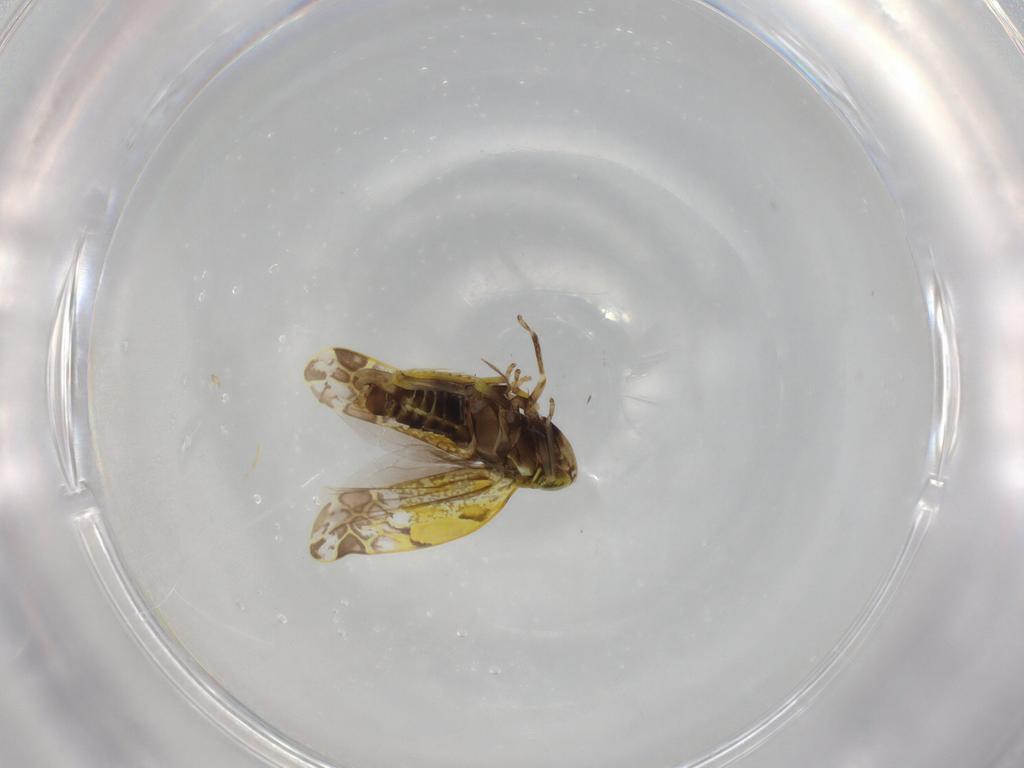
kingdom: Animalia
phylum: Arthropoda
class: Insecta
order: Hemiptera
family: Cicadellidae
